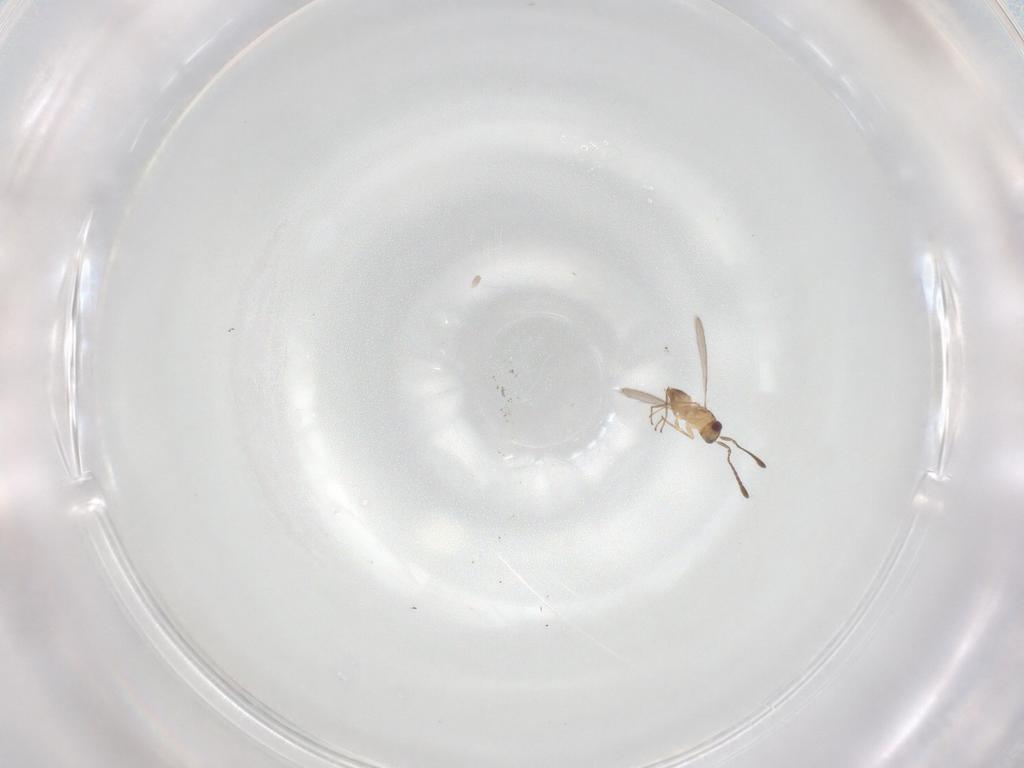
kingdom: Animalia
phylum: Arthropoda
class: Insecta
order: Hymenoptera
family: Mymaridae
